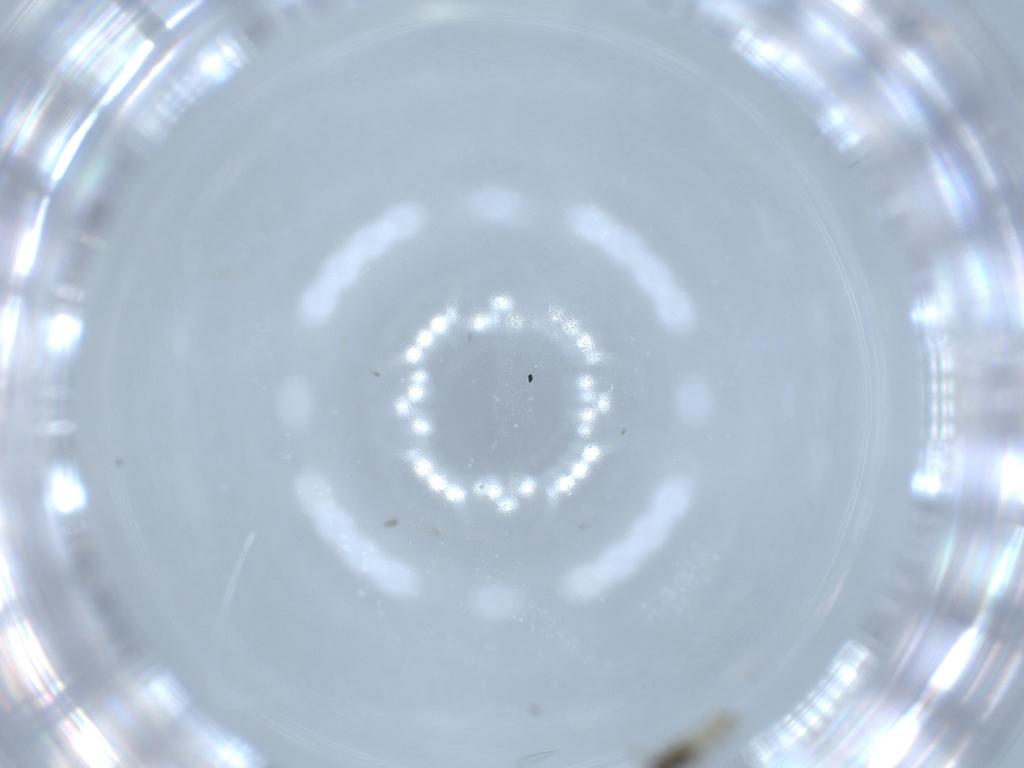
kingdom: Animalia
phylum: Arthropoda
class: Insecta
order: Hymenoptera
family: Scelionidae
